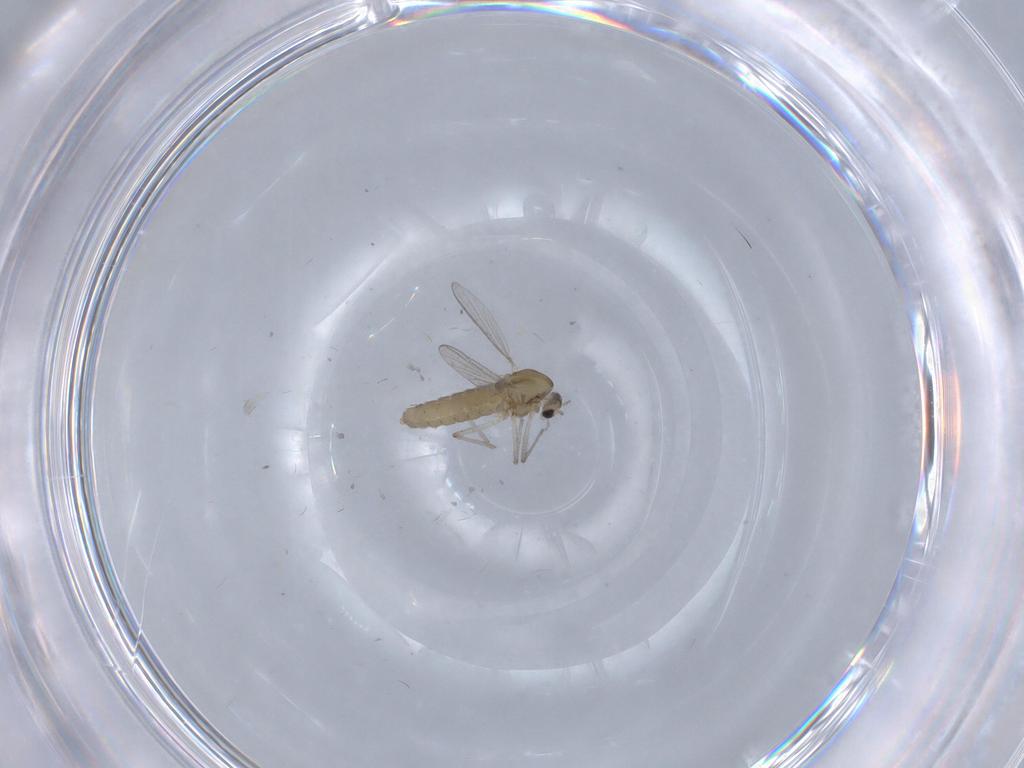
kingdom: Animalia
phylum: Arthropoda
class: Insecta
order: Diptera
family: Chironomidae
